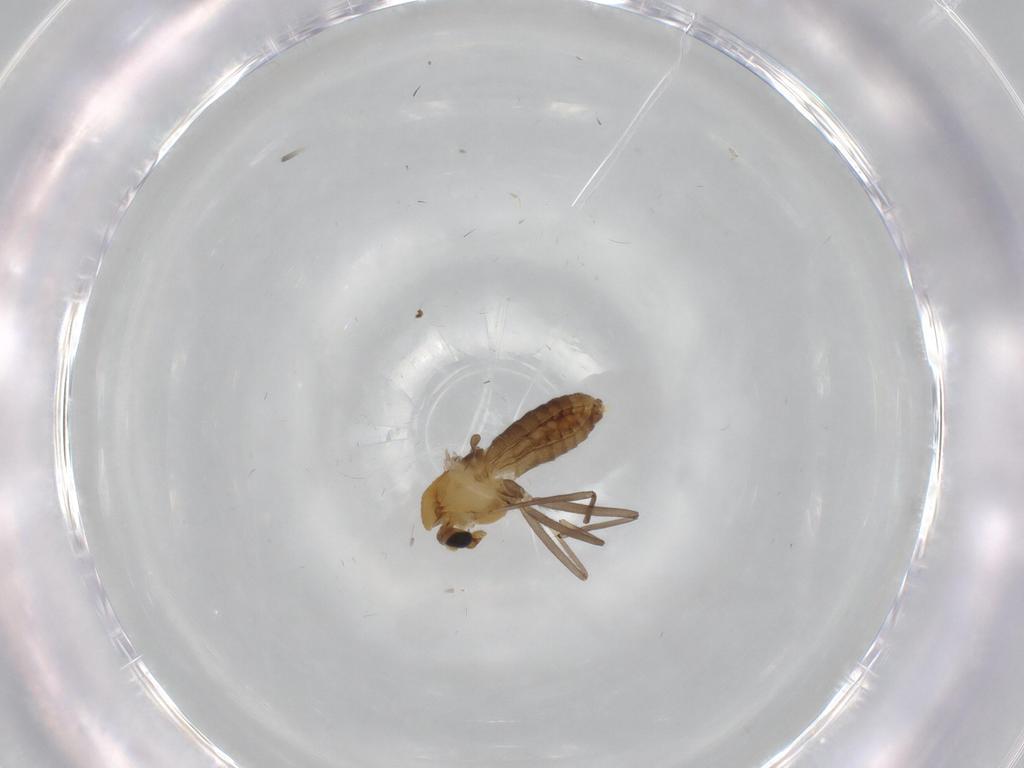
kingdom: Animalia
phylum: Arthropoda
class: Insecta
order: Diptera
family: Chironomidae
